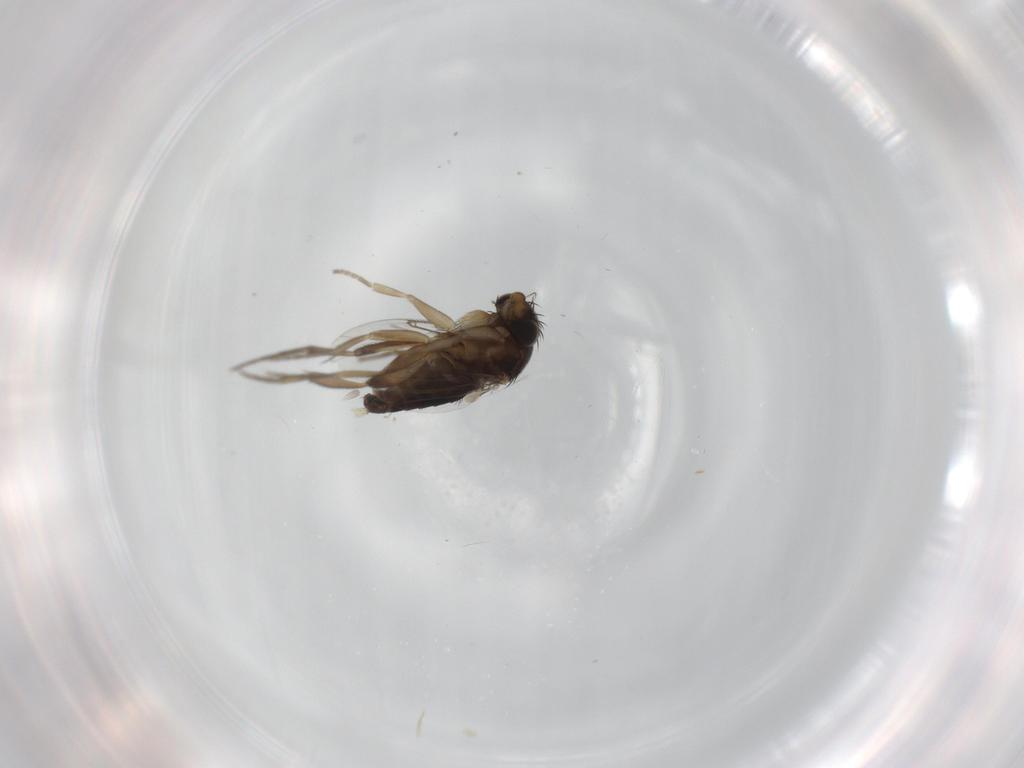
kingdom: Animalia
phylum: Arthropoda
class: Insecta
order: Diptera
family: Phoridae
